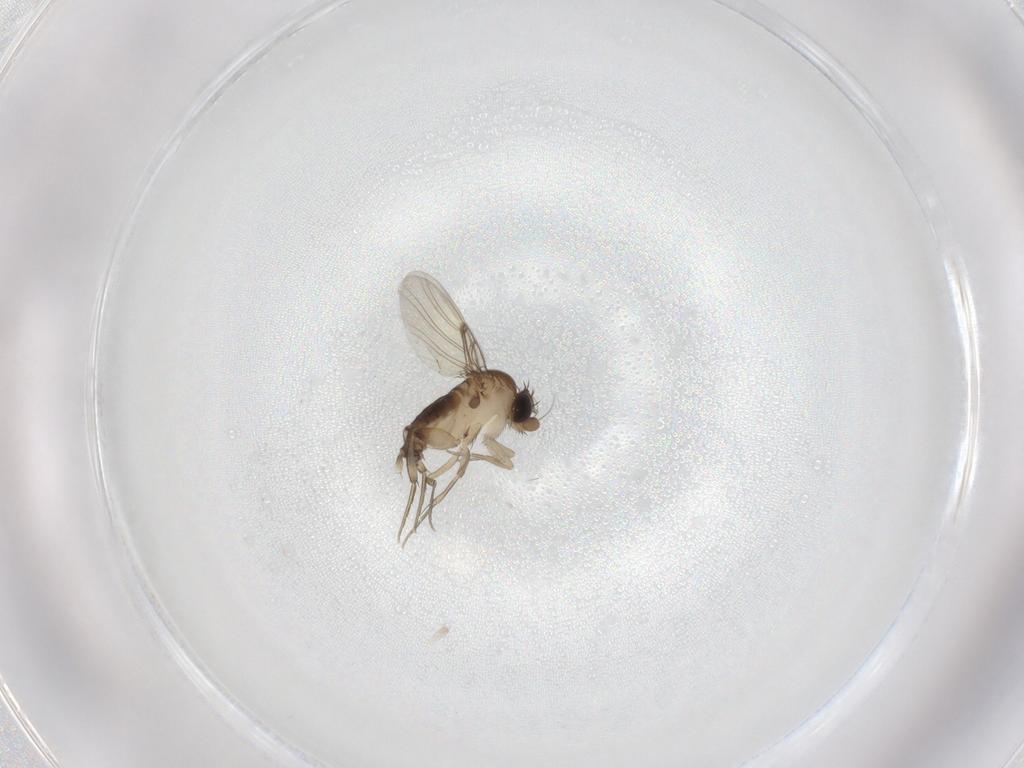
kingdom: Animalia
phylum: Arthropoda
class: Insecta
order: Diptera
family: Phoridae
